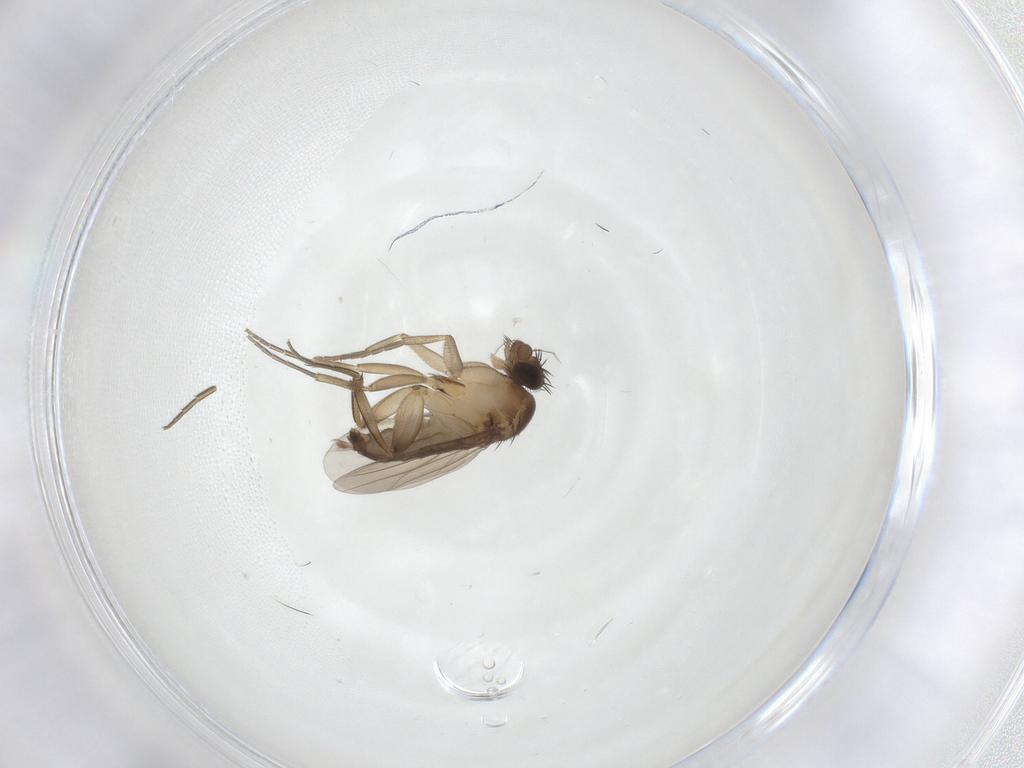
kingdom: Animalia
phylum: Arthropoda
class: Insecta
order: Diptera
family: Phoridae
